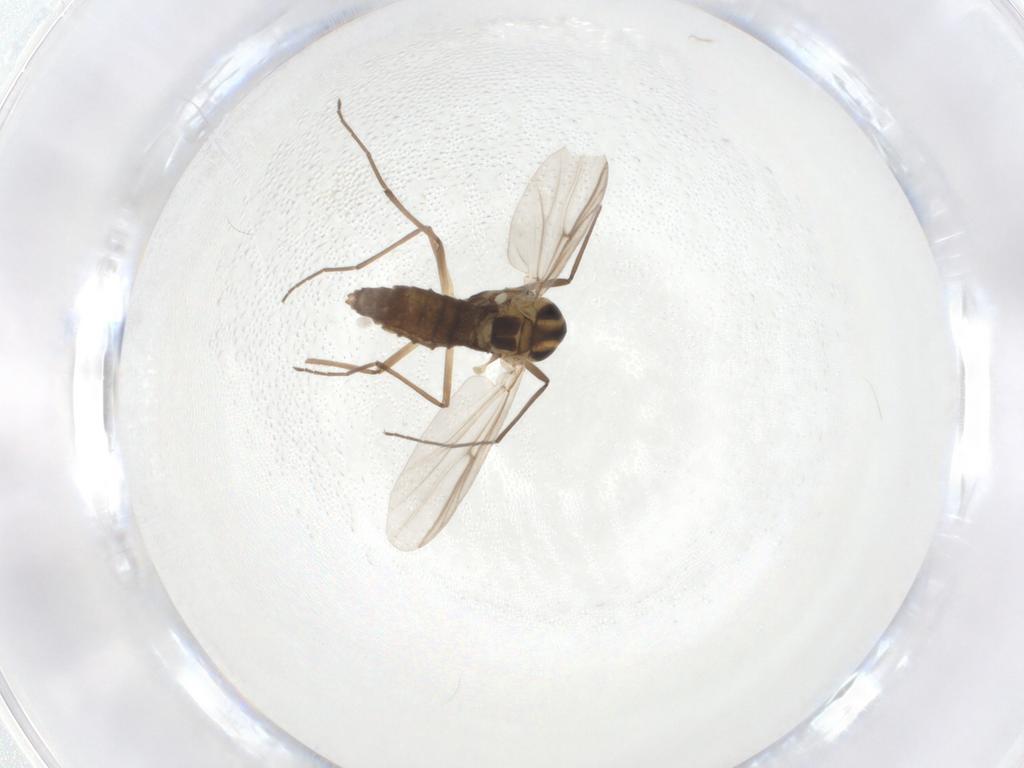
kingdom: Animalia
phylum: Arthropoda
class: Insecta
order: Diptera
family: Chironomidae
